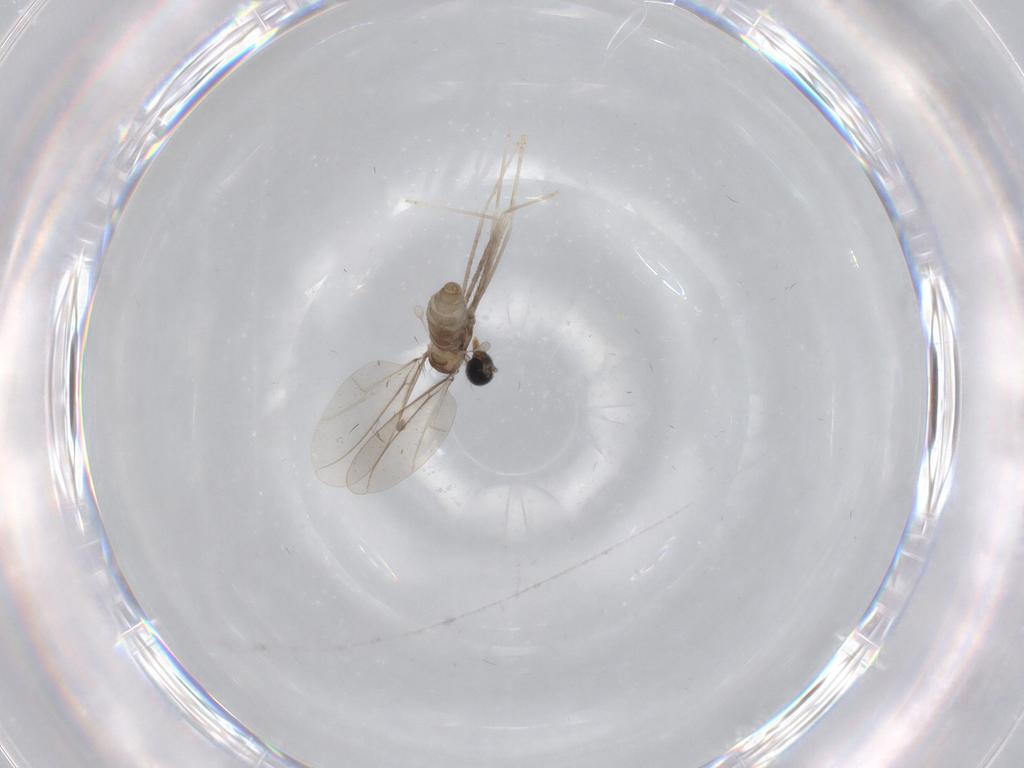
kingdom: Animalia
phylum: Arthropoda
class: Insecta
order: Diptera
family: Cecidomyiidae
